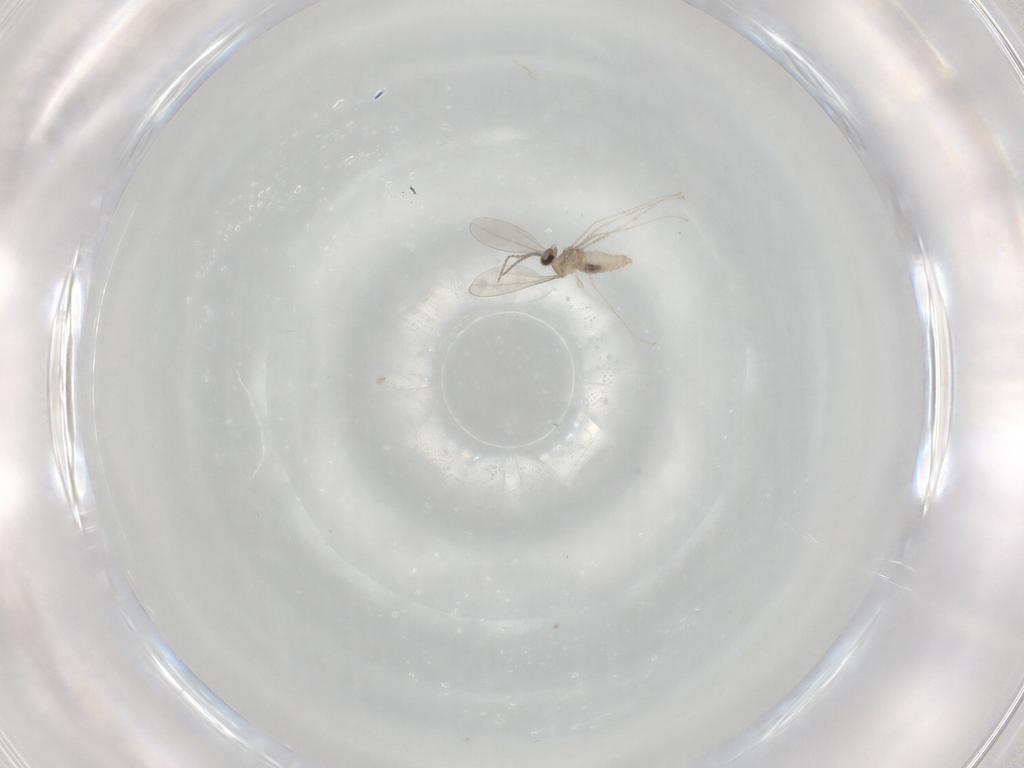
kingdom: Animalia
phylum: Arthropoda
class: Insecta
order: Diptera
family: Cecidomyiidae
